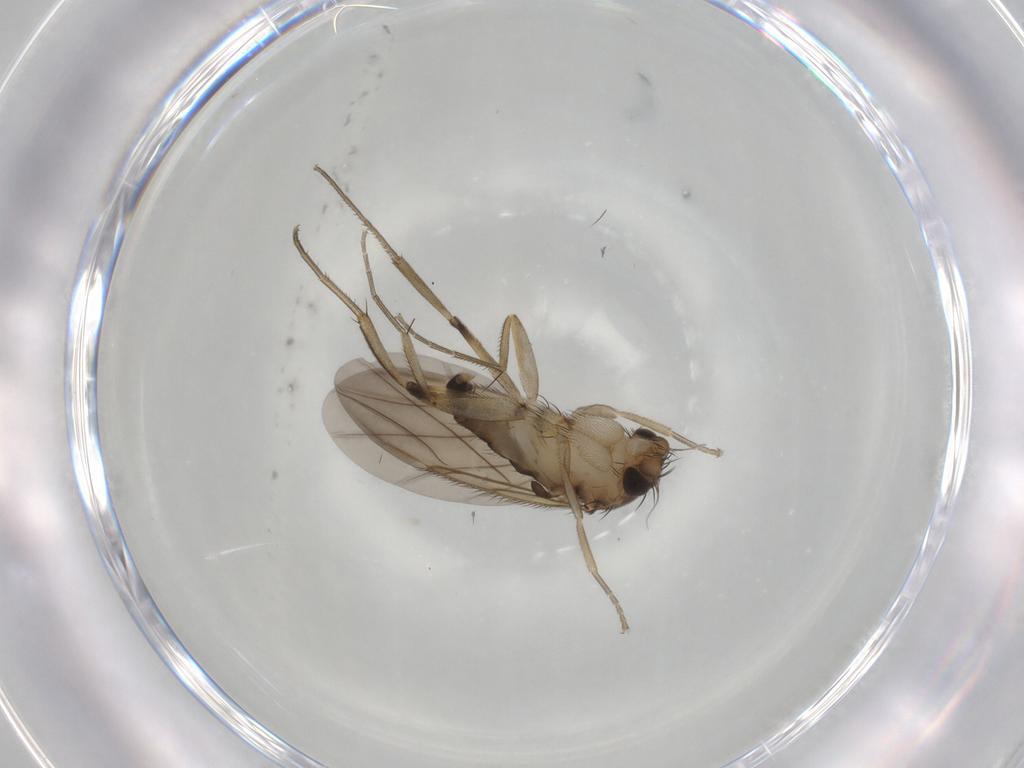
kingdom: Animalia
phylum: Arthropoda
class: Insecta
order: Diptera
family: Phoridae
